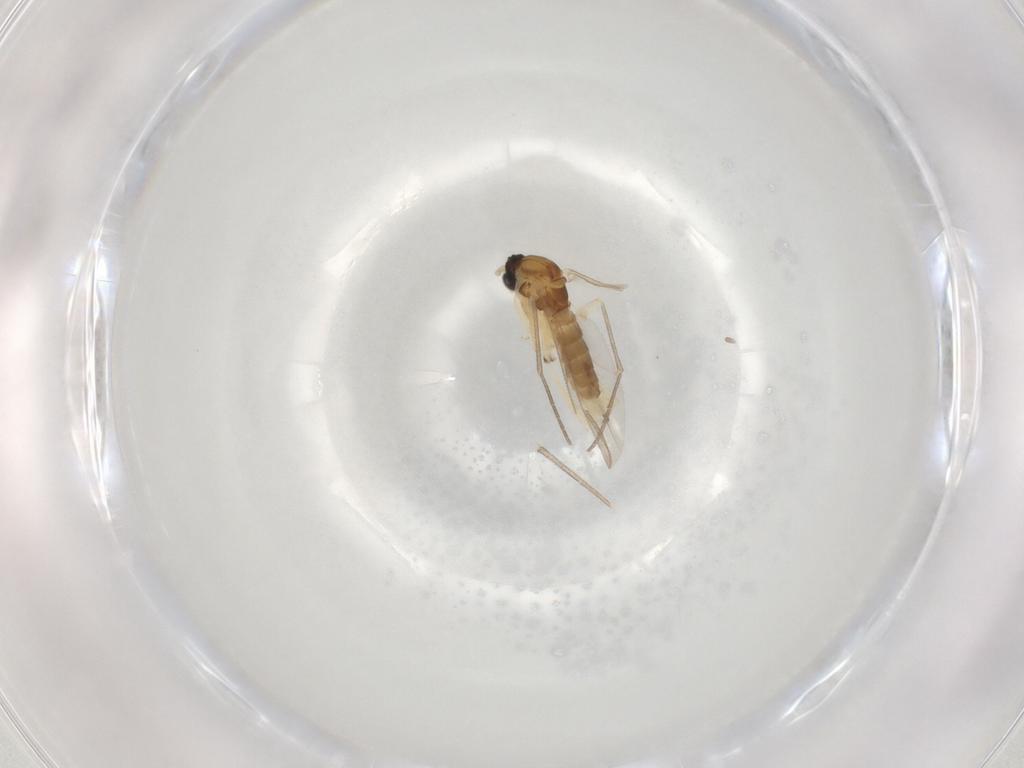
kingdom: Animalia
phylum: Arthropoda
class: Insecta
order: Diptera
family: Sciaridae
